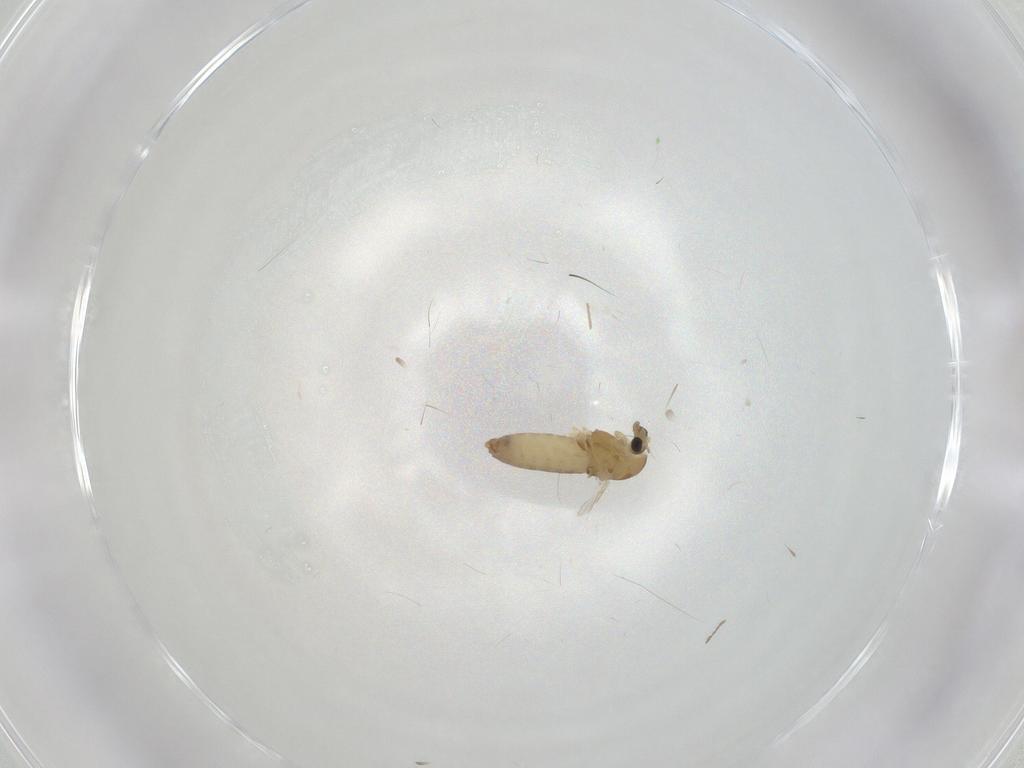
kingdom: Animalia
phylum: Arthropoda
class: Insecta
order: Diptera
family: Chironomidae
